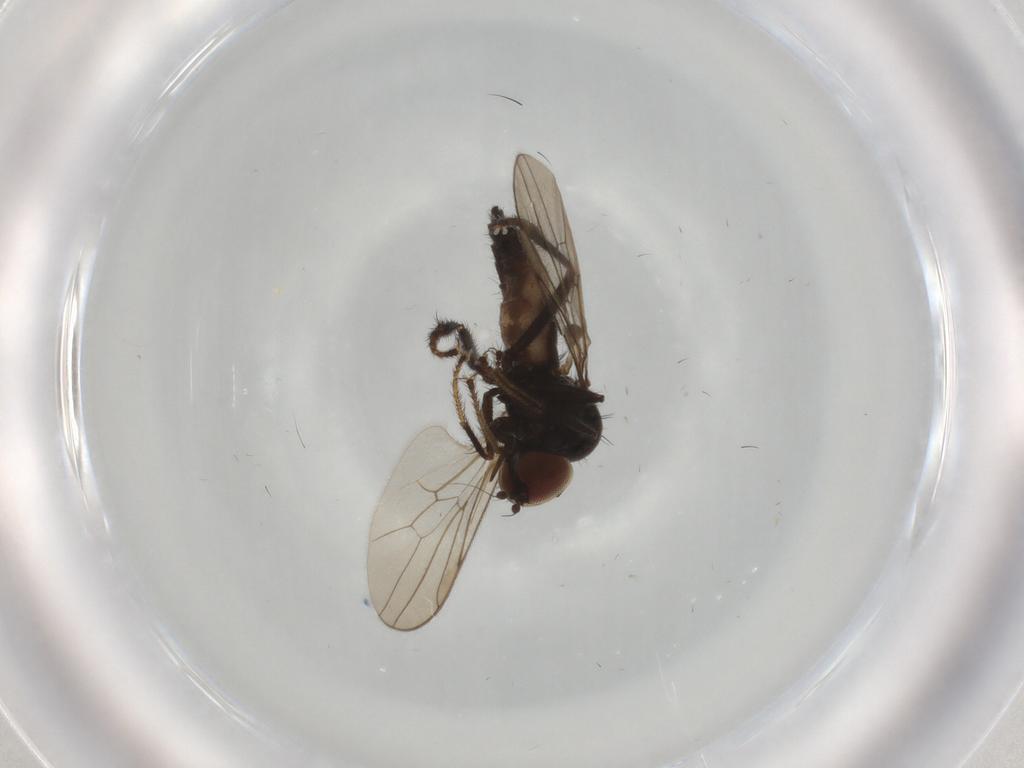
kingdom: Animalia
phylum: Arthropoda
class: Insecta
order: Diptera
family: Hybotidae
